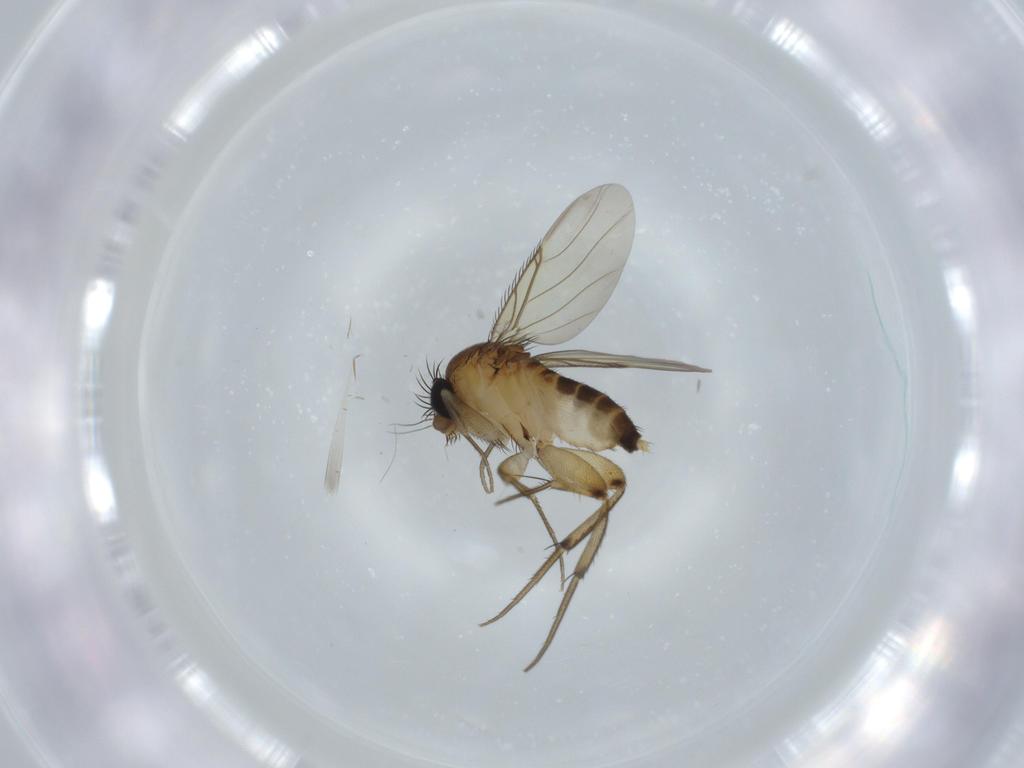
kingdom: Animalia
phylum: Arthropoda
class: Insecta
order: Diptera
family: Phoridae
